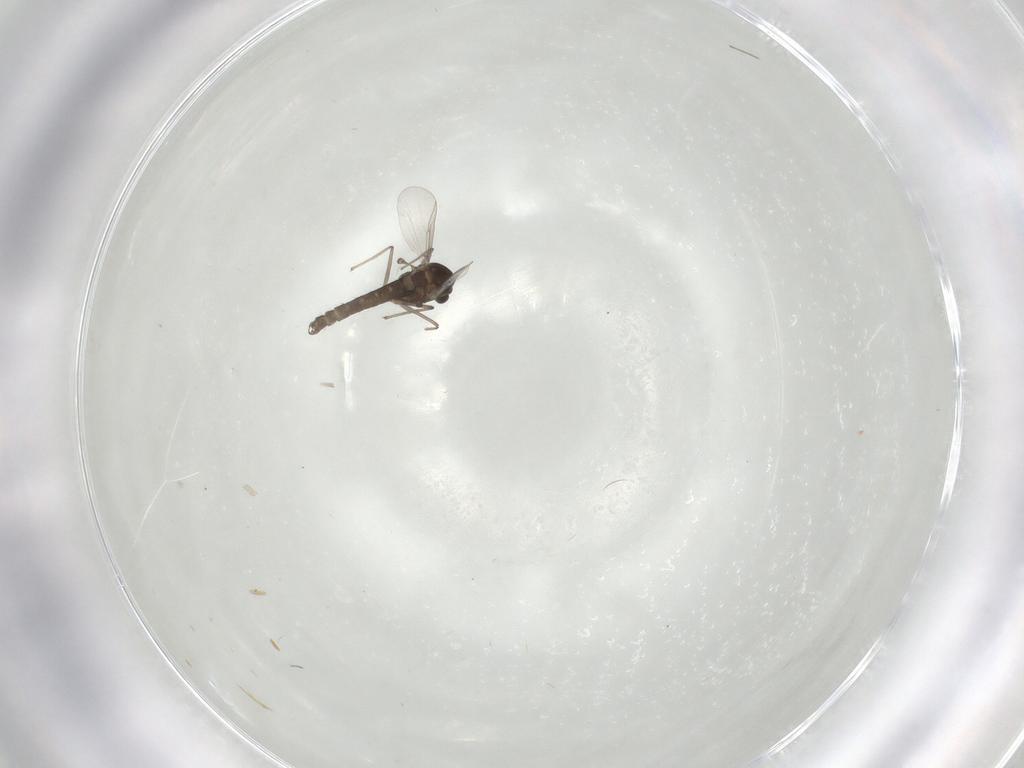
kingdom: Animalia
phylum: Arthropoda
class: Insecta
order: Diptera
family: Chironomidae
